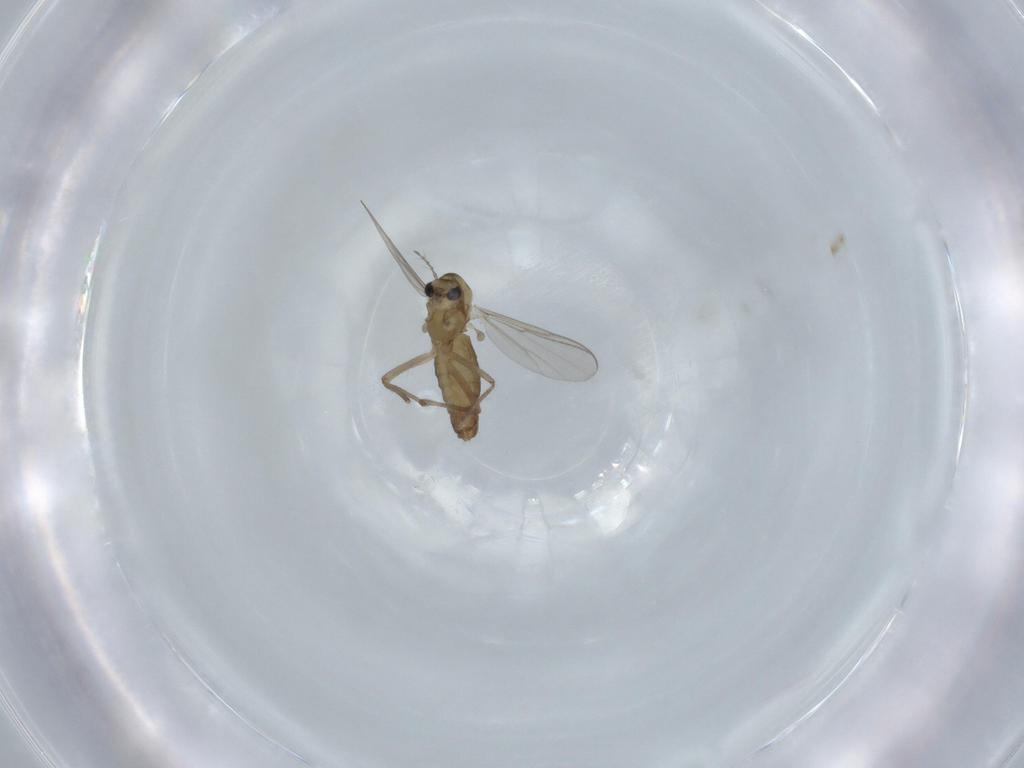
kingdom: Animalia
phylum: Arthropoda
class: Insecta
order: Diptera
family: Chironomidae
